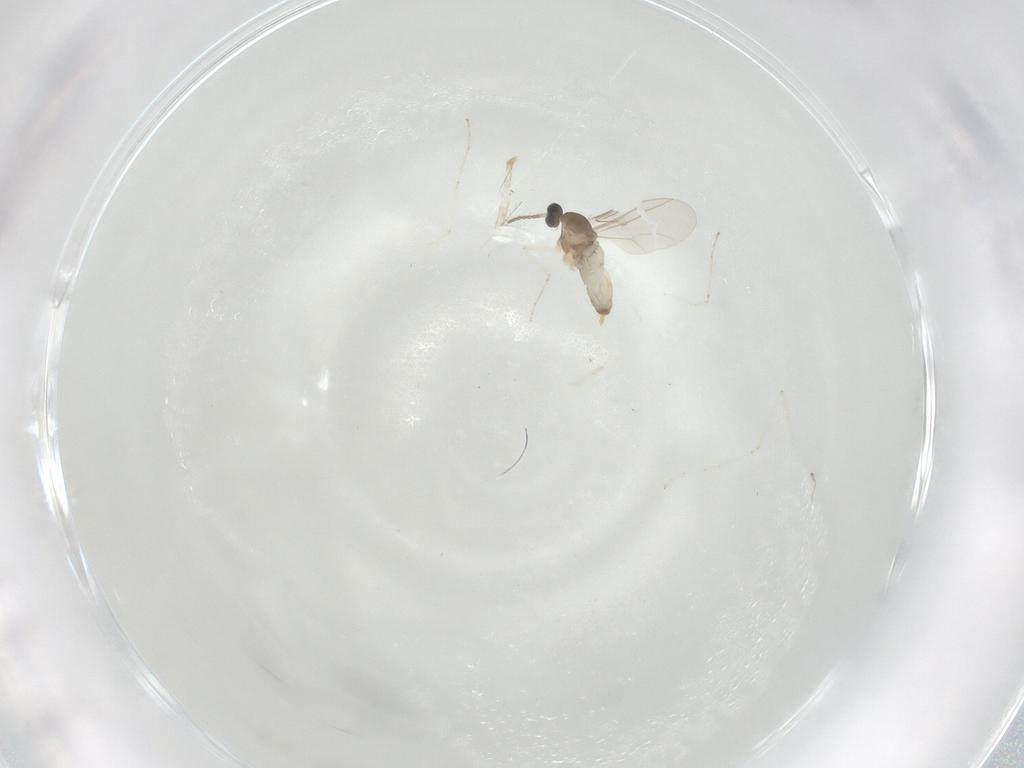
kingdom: Animalia
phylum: Arthropoda
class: Insecta
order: Diptera
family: Cecidomyiidae
